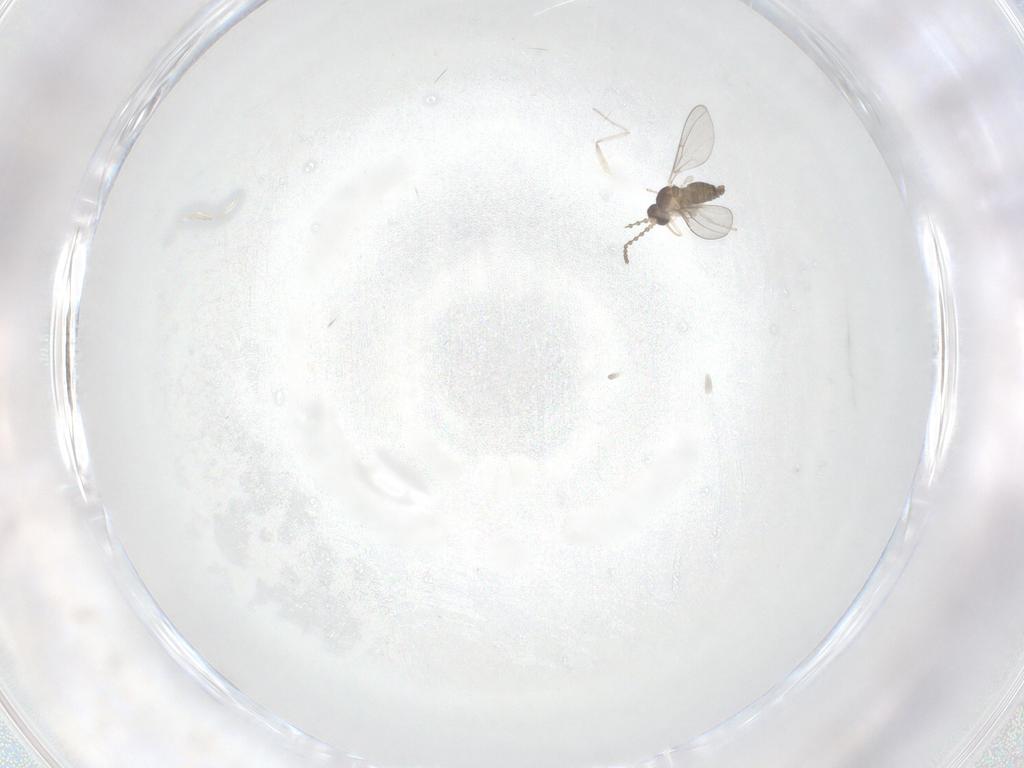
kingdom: Animalia
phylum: Arthropoda
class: Insecta
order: Diptera
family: Cecidomyiidae
